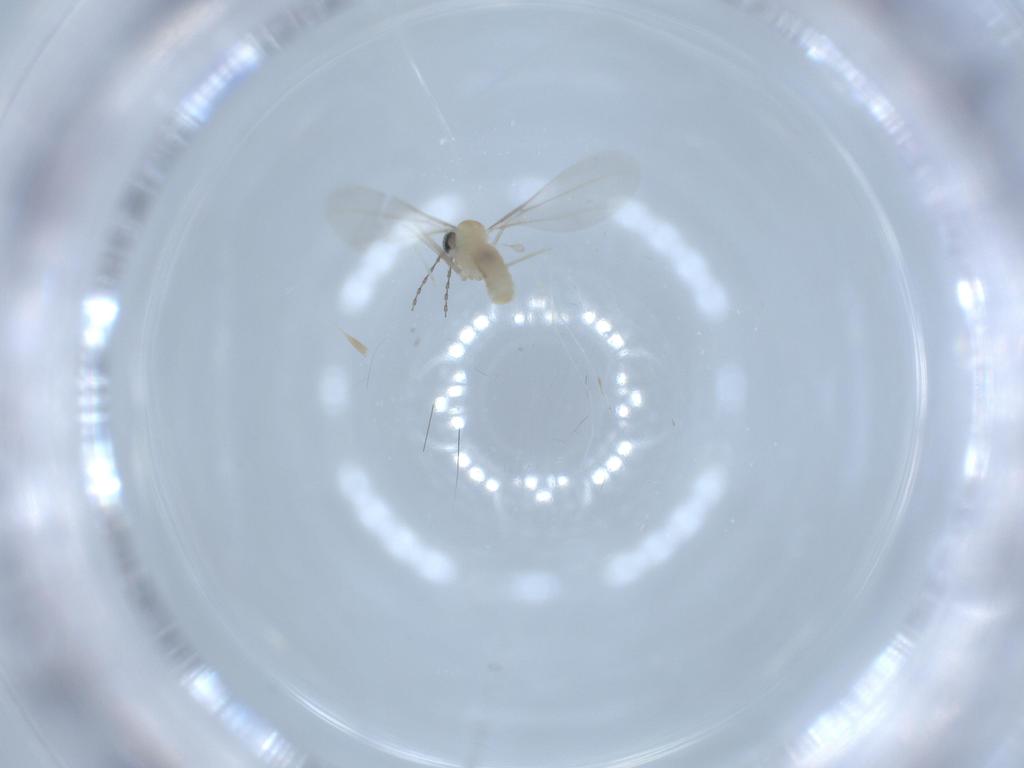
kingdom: Animalia
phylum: Arthropoda
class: Insecta
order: Diptera
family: Cecidomyiidae
